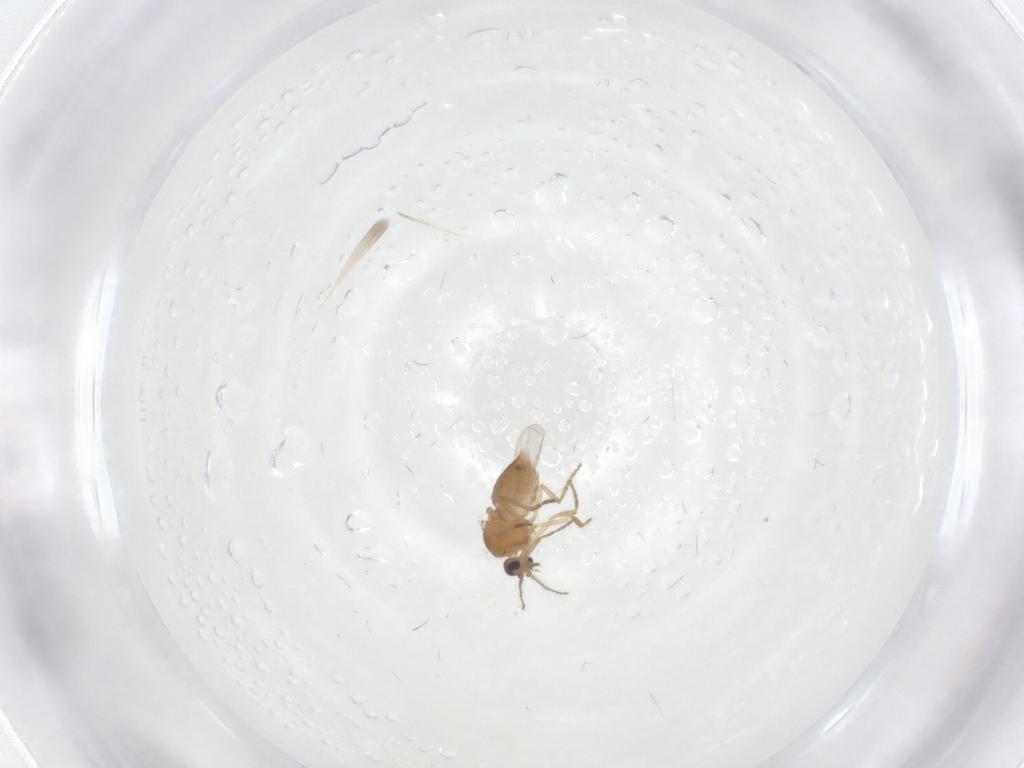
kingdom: Animalia
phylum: Arthropoda
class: Insecta
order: Diptera
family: Ceratopogonidae
